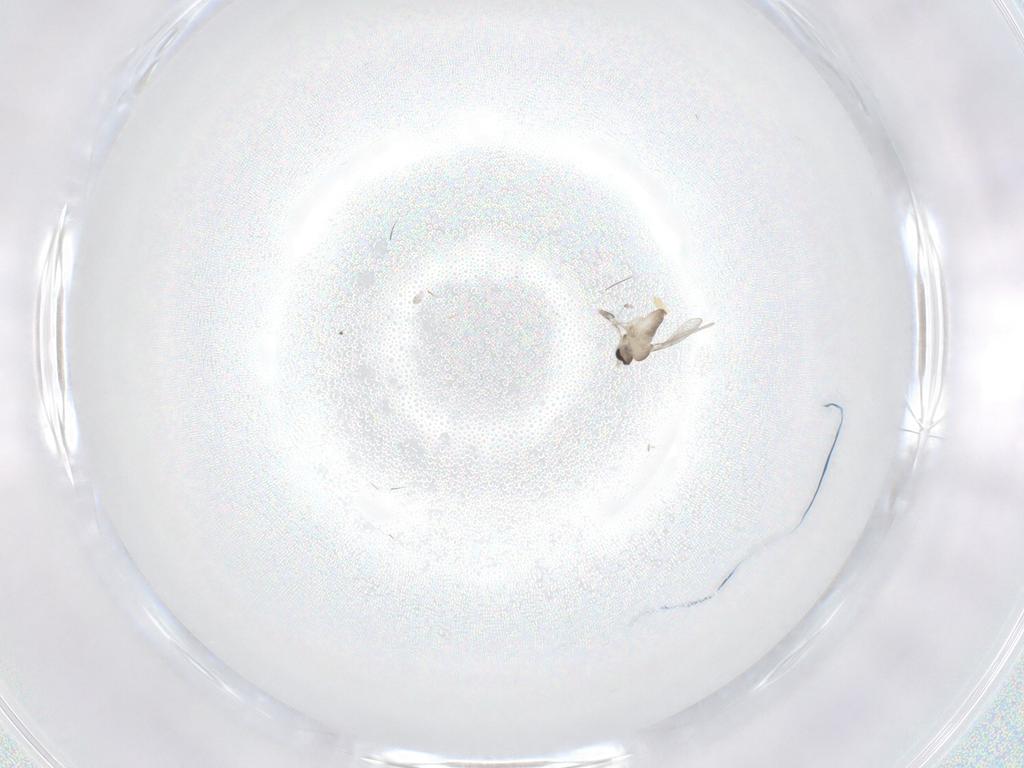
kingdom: Animalia
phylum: Arthropoda
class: Insecta
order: Diptera
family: Cecidomyiidae
